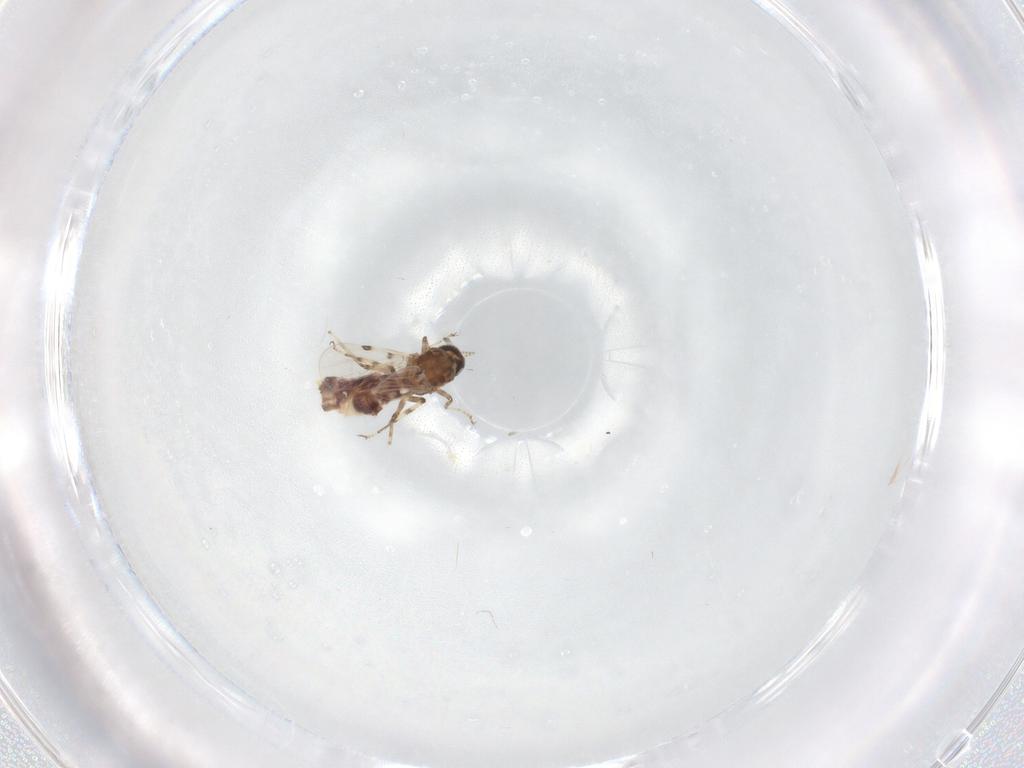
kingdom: Animalia
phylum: Arthropoda
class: Insecta
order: Diptera
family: Ceratopogonidae
